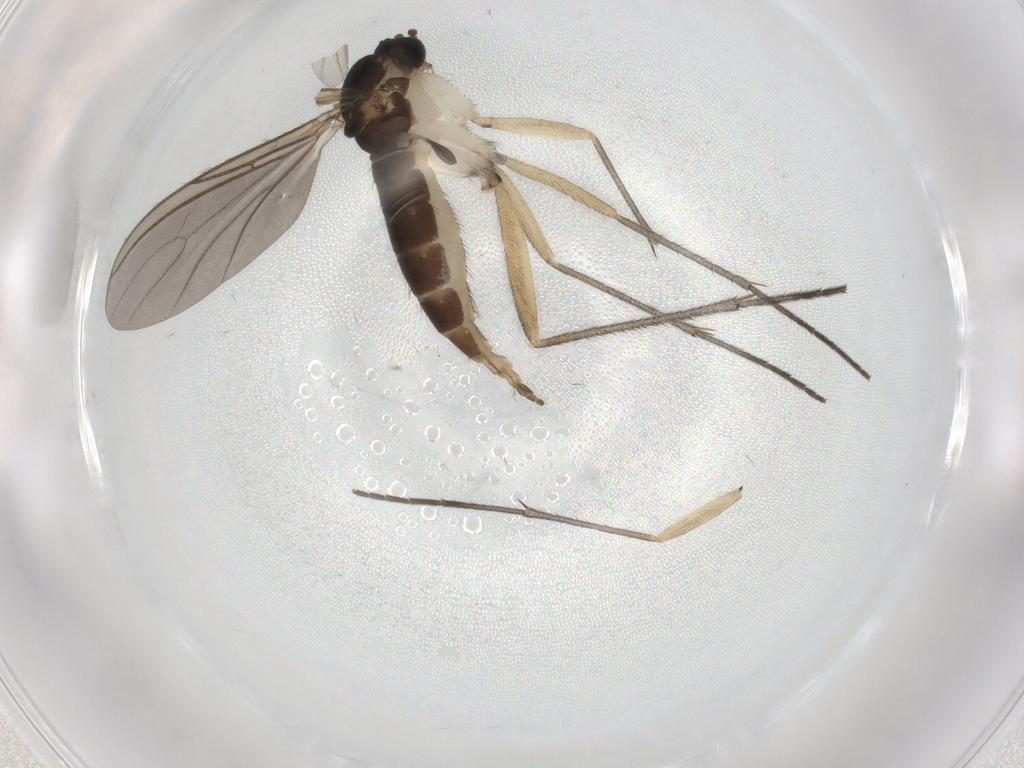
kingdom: Animalia
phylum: Arthropoda
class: Insecta
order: Diptera
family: Sciaridae
